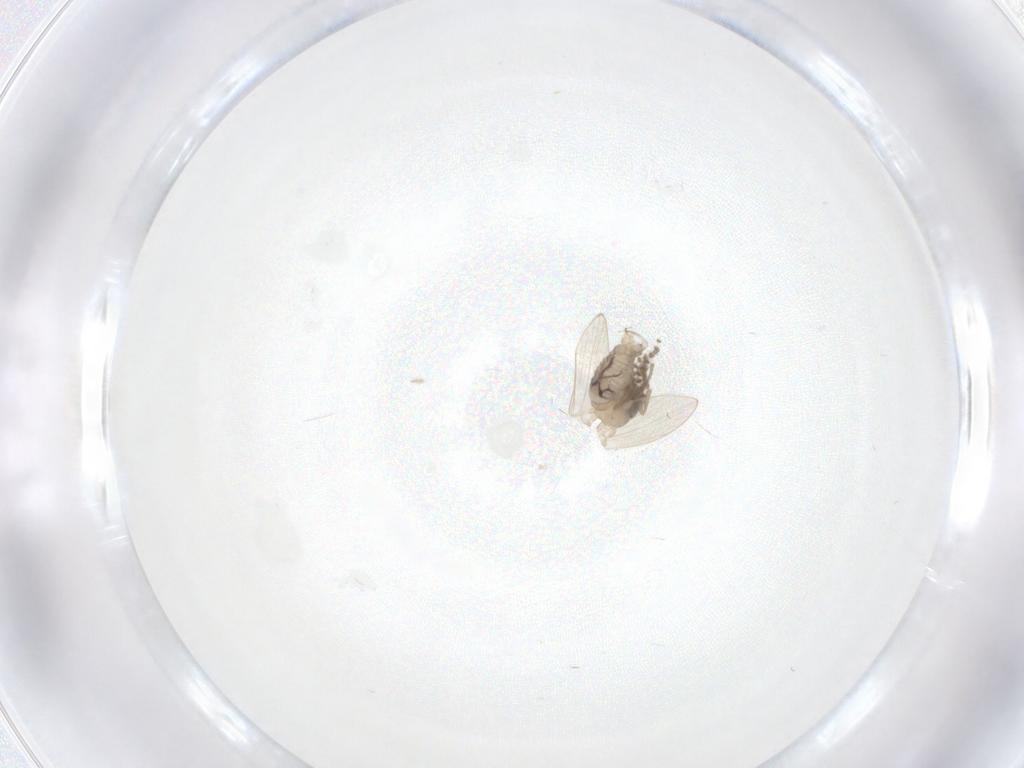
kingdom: Animalia
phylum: Arthropoda
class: Insecta
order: Diptera
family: Psychodidae
